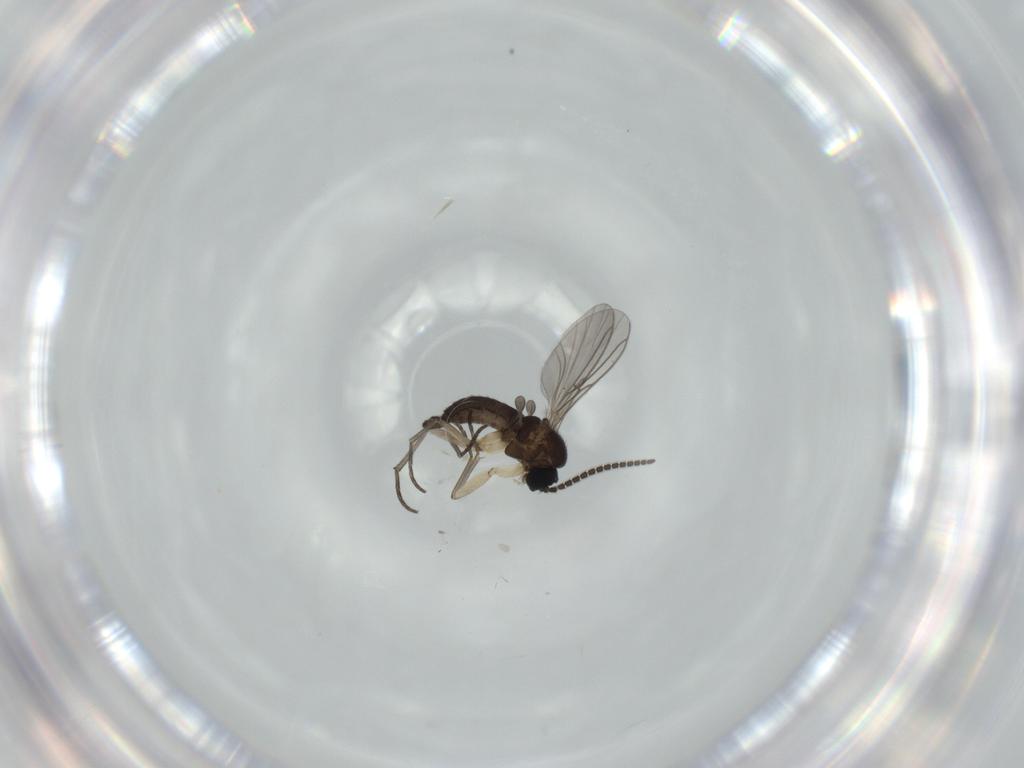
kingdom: Animalia
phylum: Arthropoda
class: Insecta
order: Diptera
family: Sciaridae
